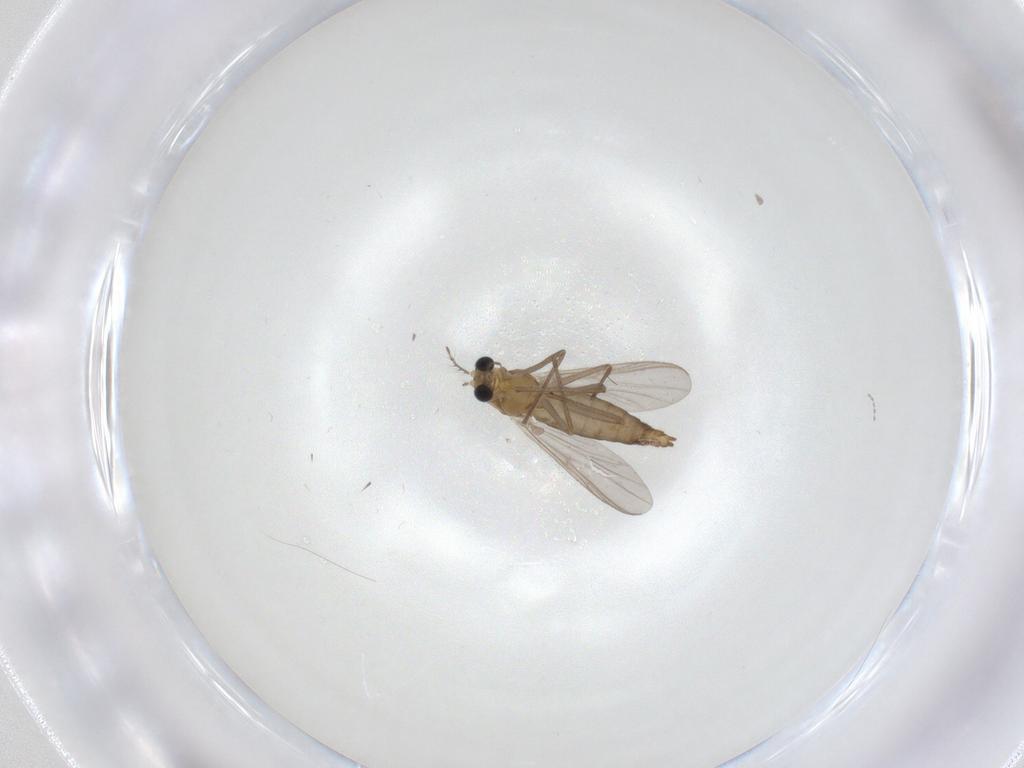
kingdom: Animalia
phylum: Arthropoda
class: Insecta
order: Diptera
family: Chironomidae
